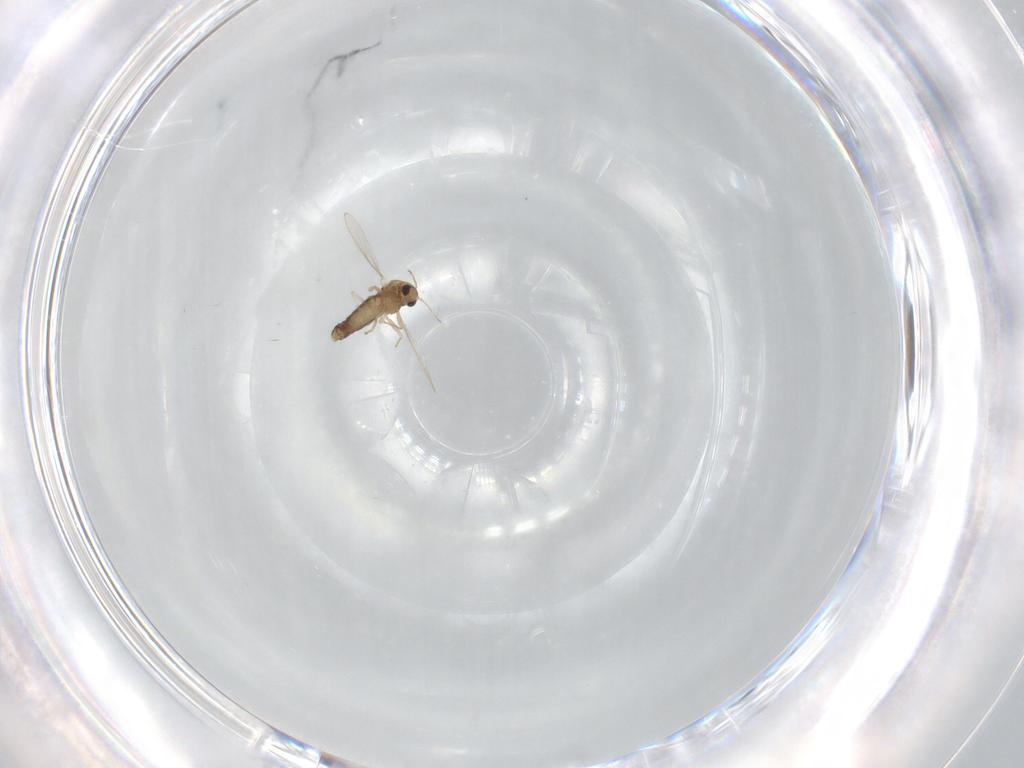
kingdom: Animalia
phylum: Arthropoda
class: Insecta
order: Diptera
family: Chironomidae
